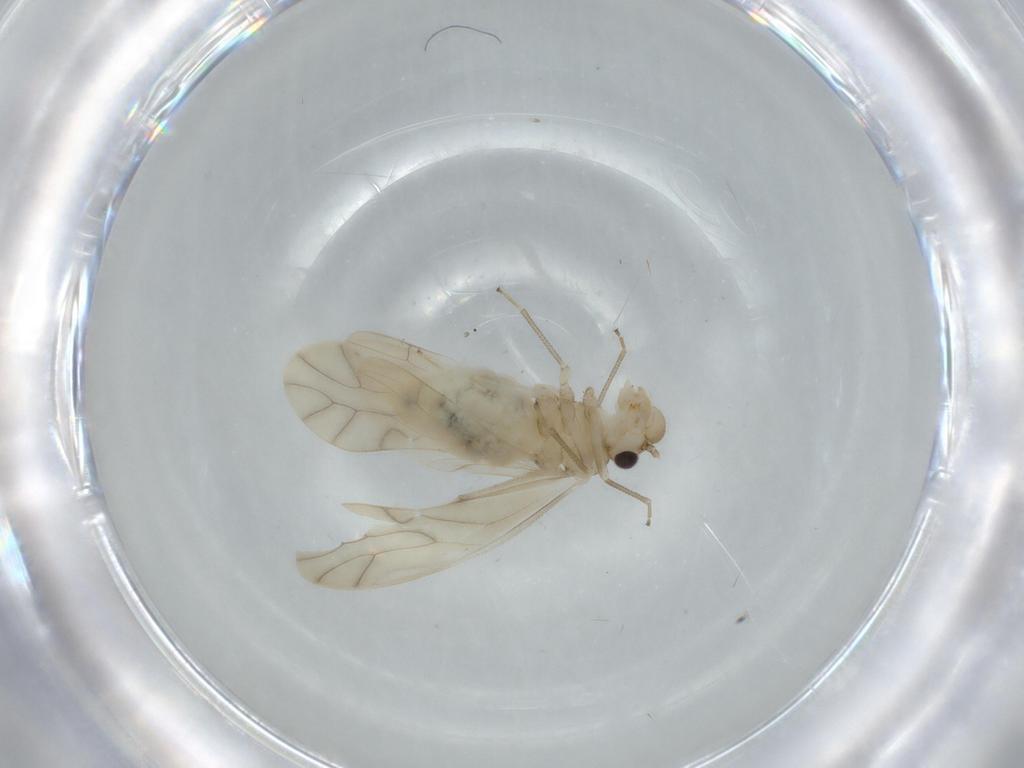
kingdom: Animalia
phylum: Arthropoda
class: Insecta
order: Psocodea
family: Caeciliusidae
